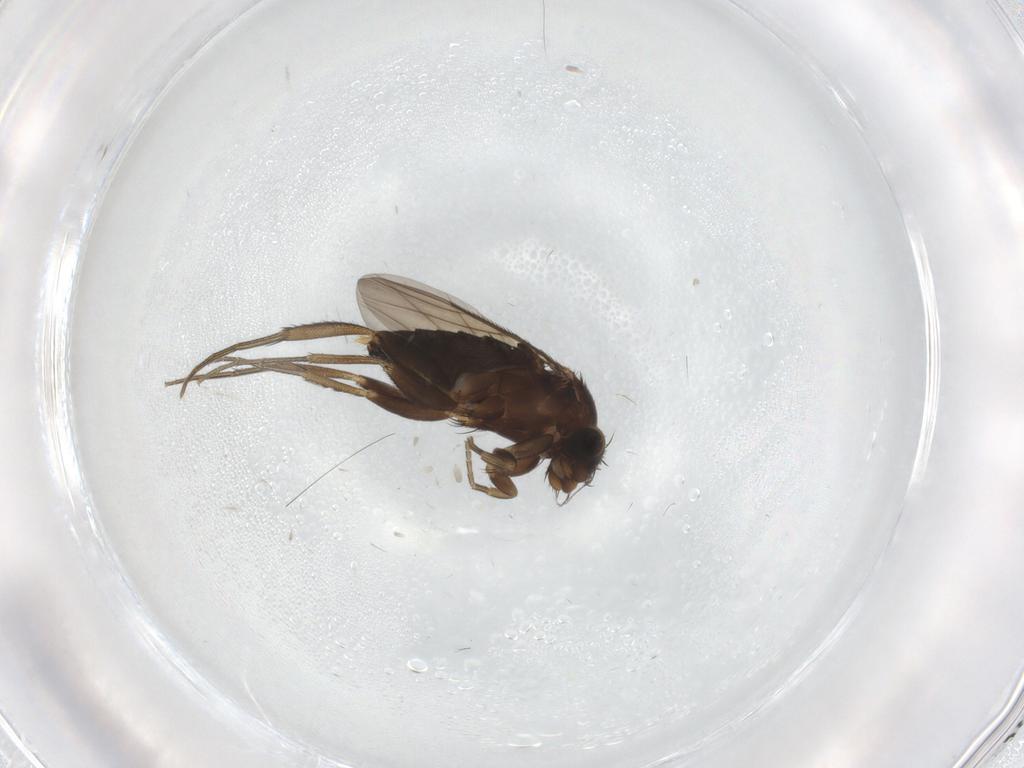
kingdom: Animalia
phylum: Arthropoda
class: Insecta
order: Diptera
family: Phoridae
